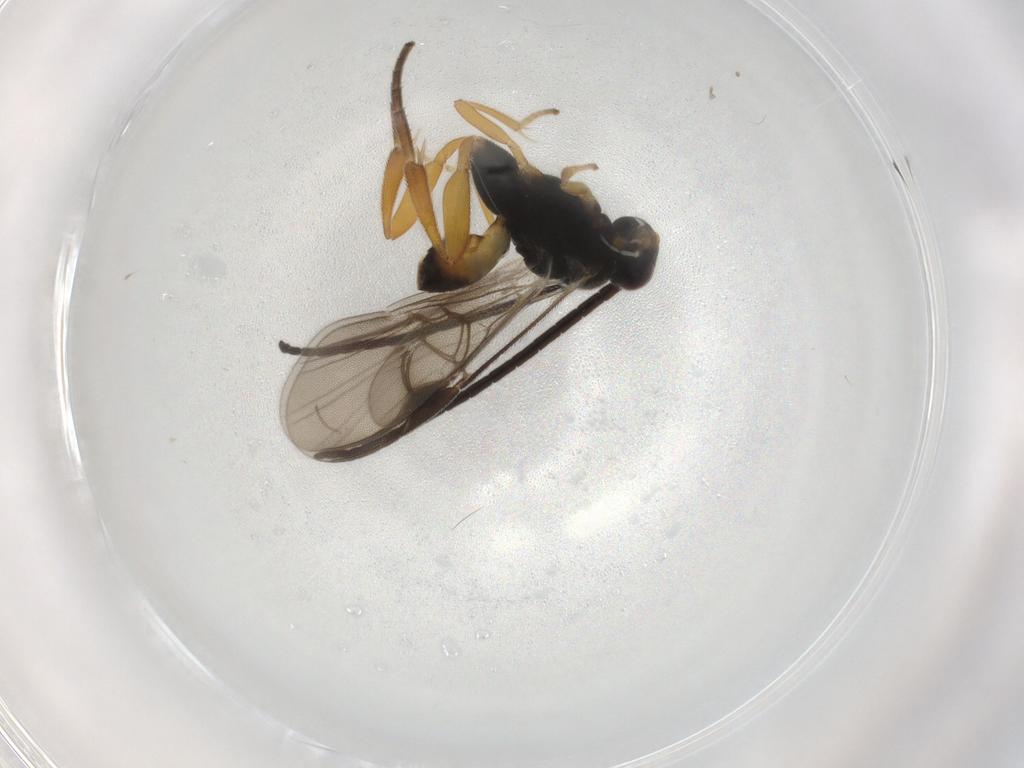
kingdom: Animalia
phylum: Arthropoda
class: Insecta
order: Hymenoptera
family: Braconidae
